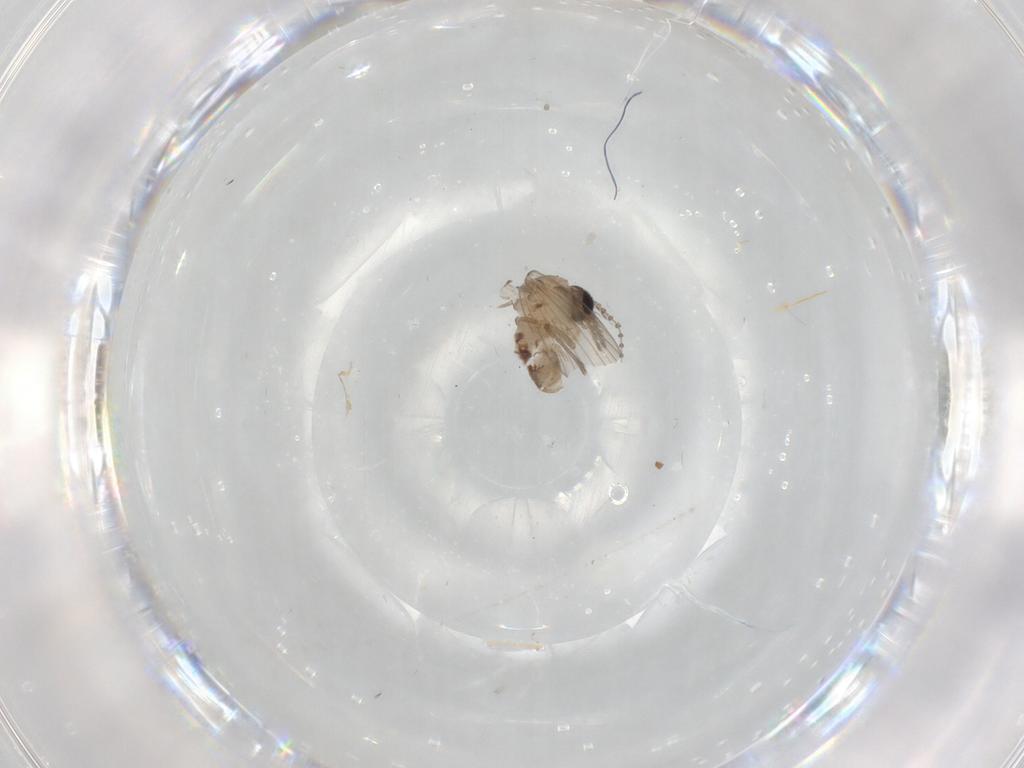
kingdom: Animalia
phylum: Arthropoda
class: Insecta
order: Diptera
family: Psychodidae
